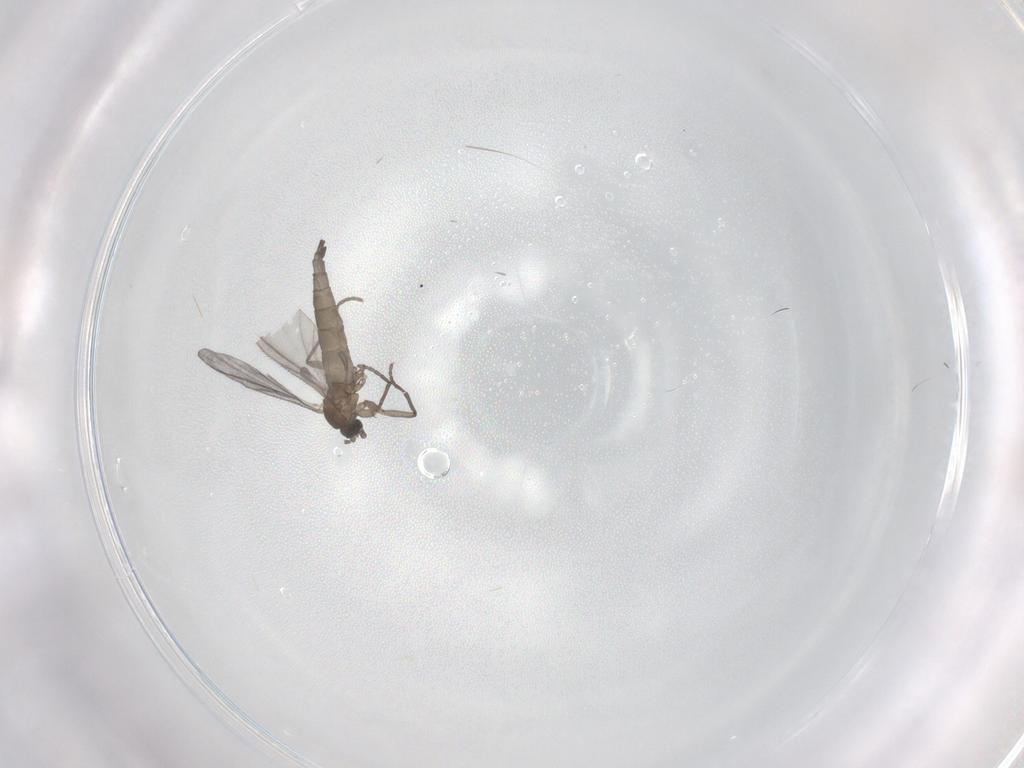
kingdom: Animalia
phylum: Arthropoda
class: Insecta
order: Diptera
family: Sciaridae
